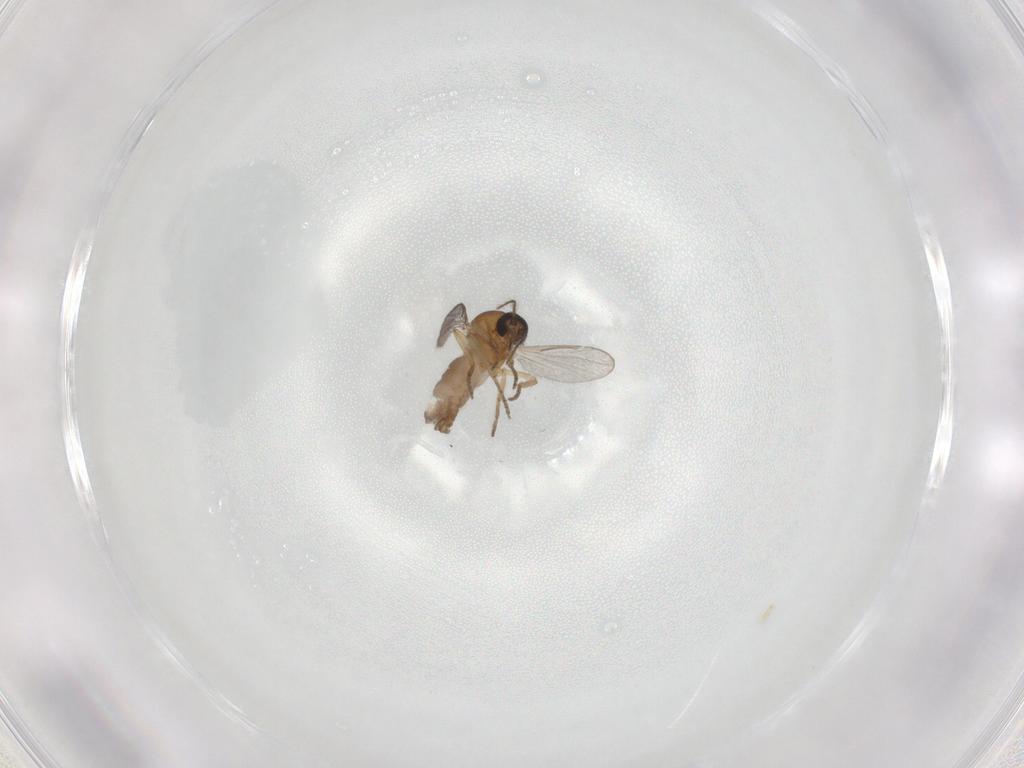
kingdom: Animalia
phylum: Arthropoda
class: Insecta
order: Diptera
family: Ceratopogonidae
